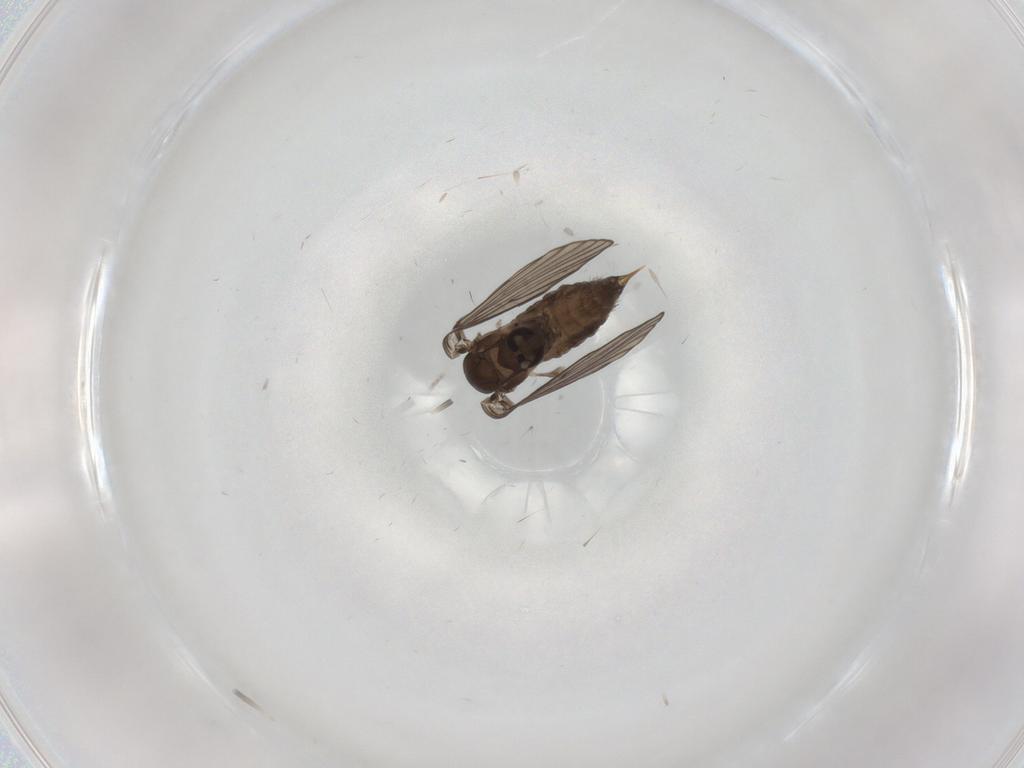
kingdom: Animalia
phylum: Arthropoda
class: Insecta
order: Diptera
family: Psychodidae
